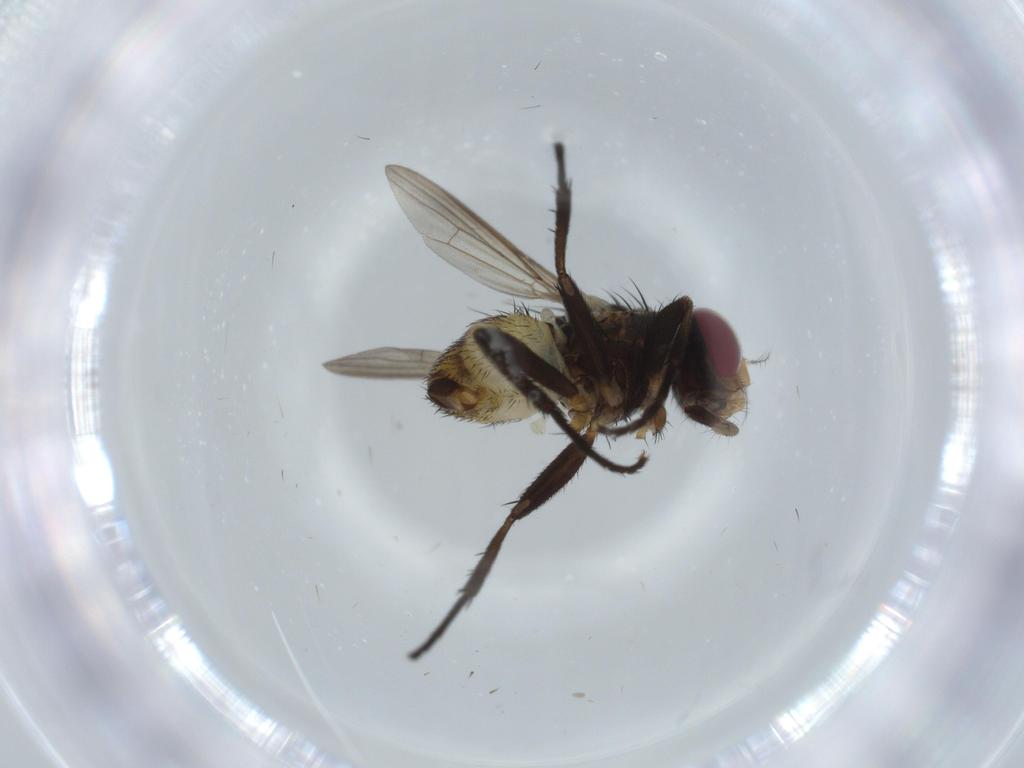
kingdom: Animalia
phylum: Arthropoda
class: Insecta
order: Diptera
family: Anthomyiidae
